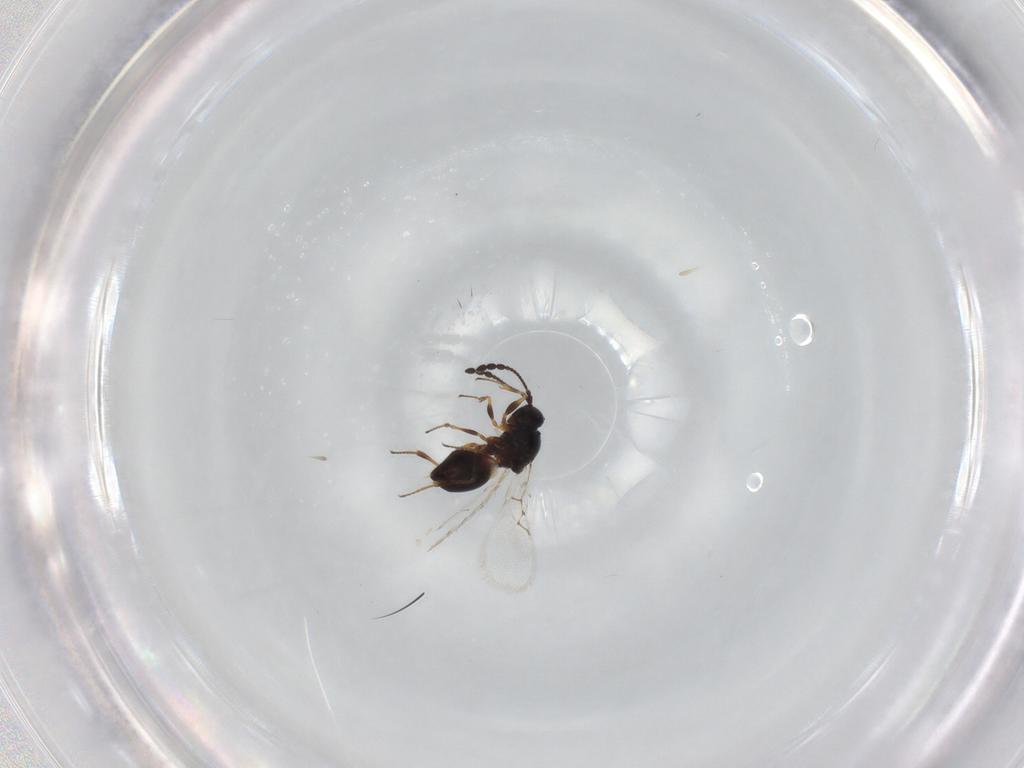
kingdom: Animalia
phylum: Arthropoda
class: Insecta
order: Hymenoptera
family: Figitidae
